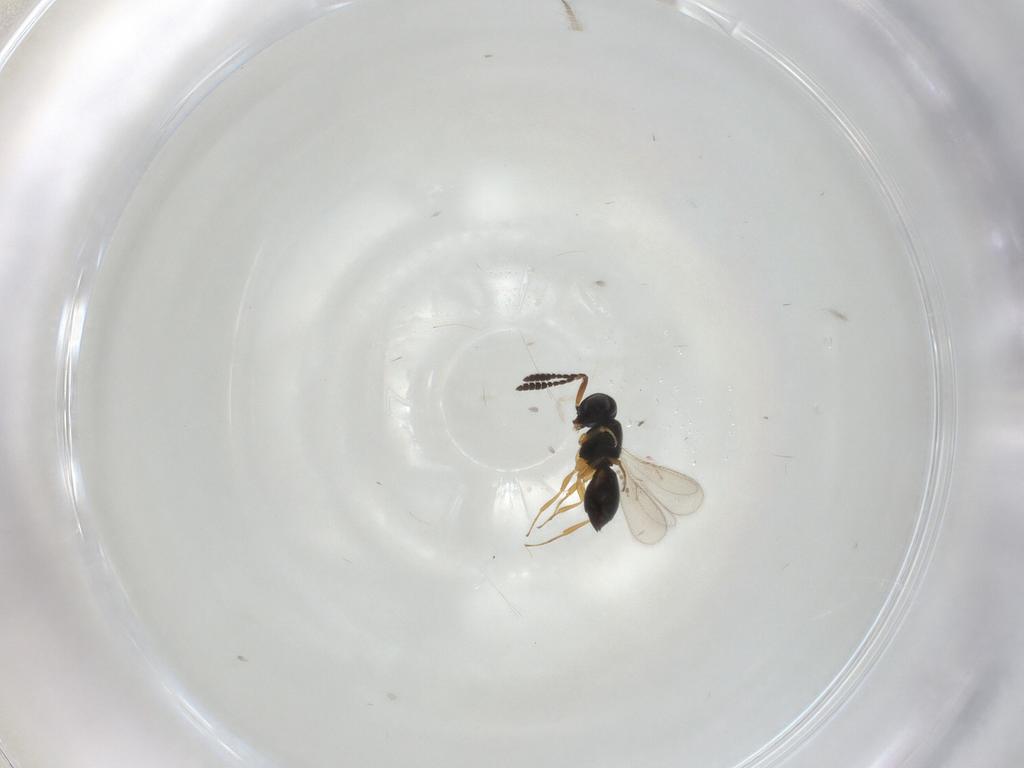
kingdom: Animalia
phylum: Arthropoda
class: Insecta
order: Hymenoptera
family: Scelionidae
